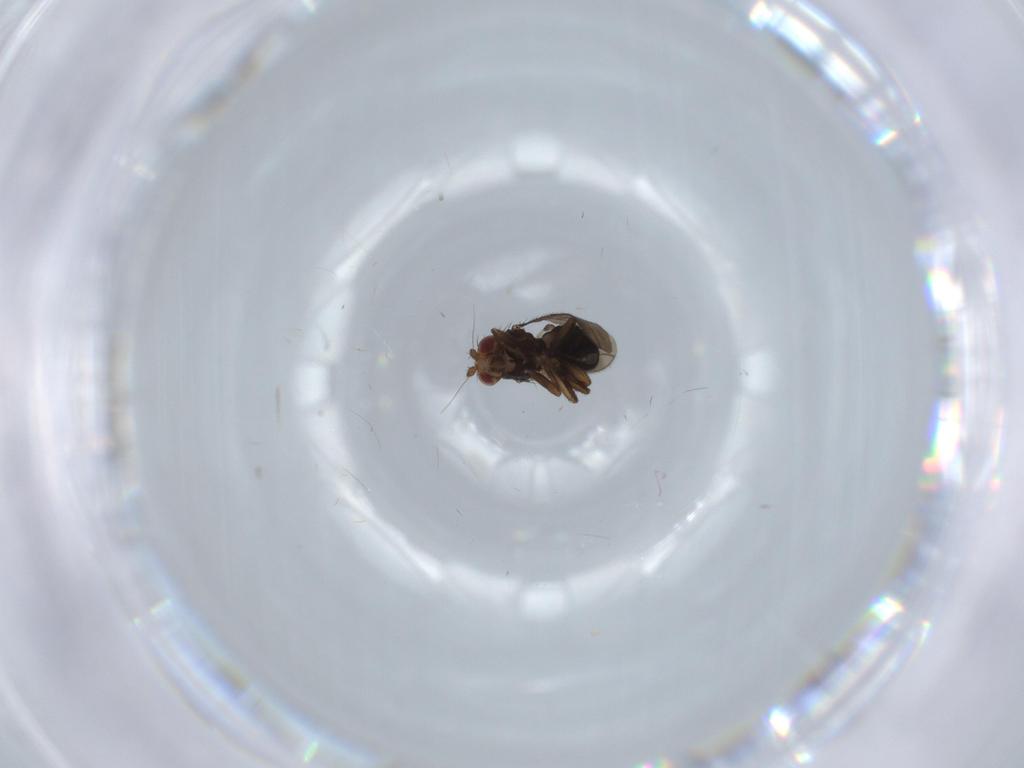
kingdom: Animalia
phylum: Arthropoda
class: Insecta
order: Diptera
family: Sphaeroceridae
